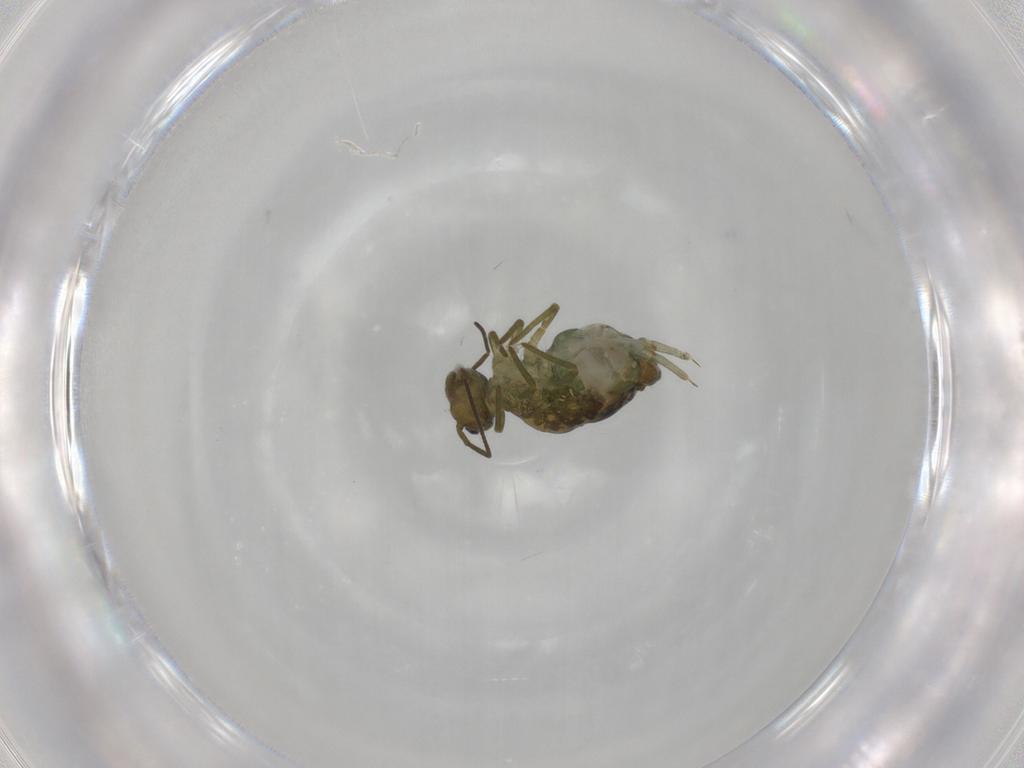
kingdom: Animalia
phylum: Arthropoda
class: Collembola
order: Symphypleona
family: Sminthuridae
